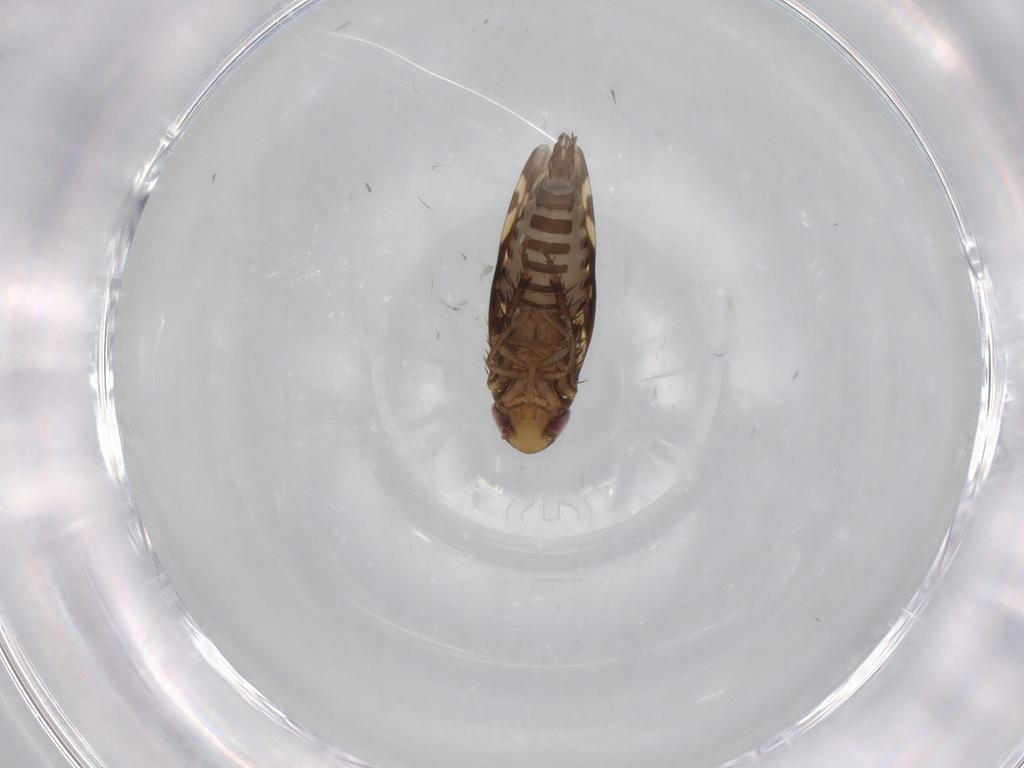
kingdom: Animalia
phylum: Arthropoda
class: Insecta
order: Hemiptera
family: Cicadellidae
